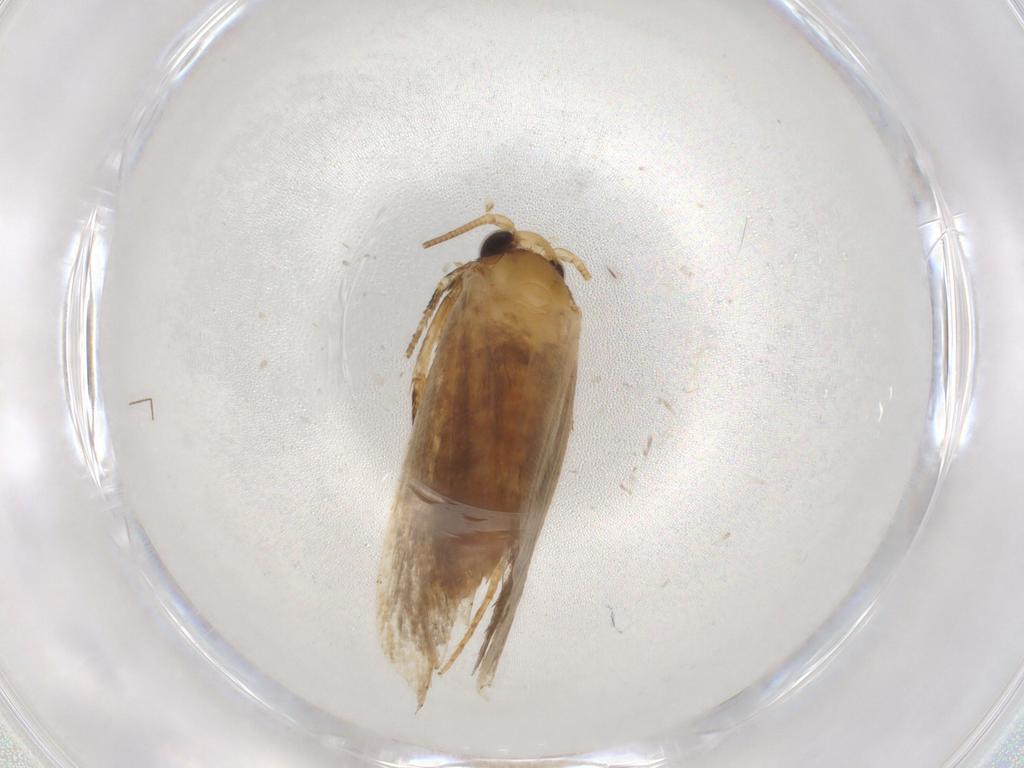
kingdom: Animalia
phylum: Arthropoda
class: Insecta
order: Lepidoptera
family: Tineidae
